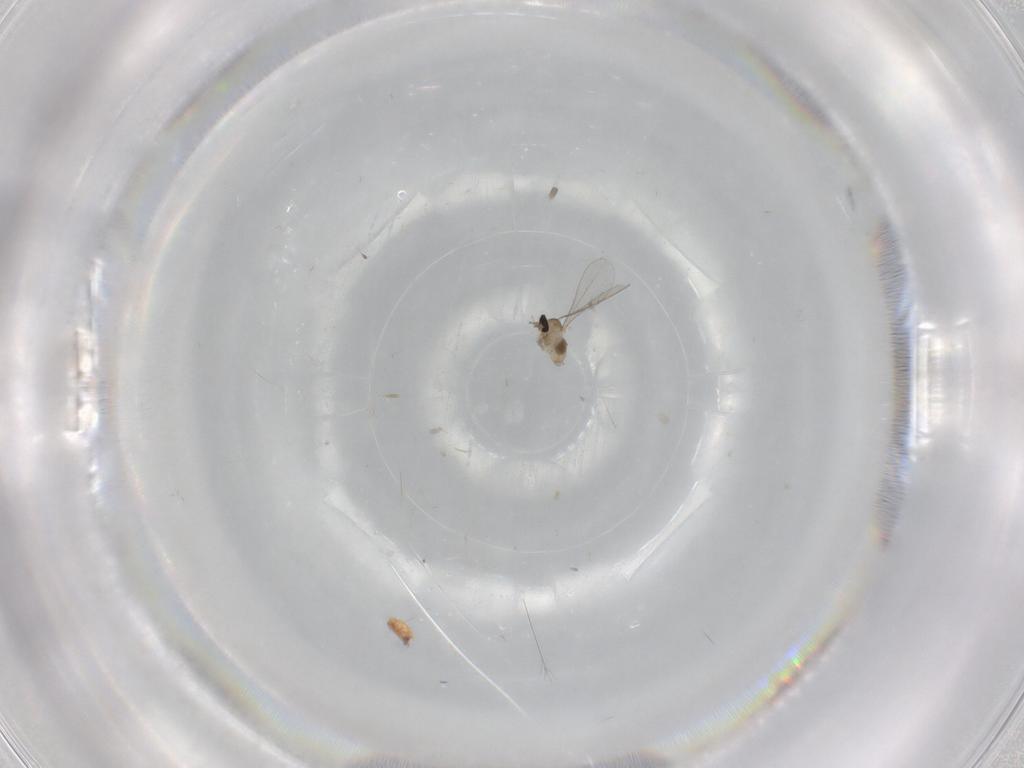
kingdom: Animalia
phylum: Arthropoda
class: Insecta
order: Diptera
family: Cecidomyiidae
